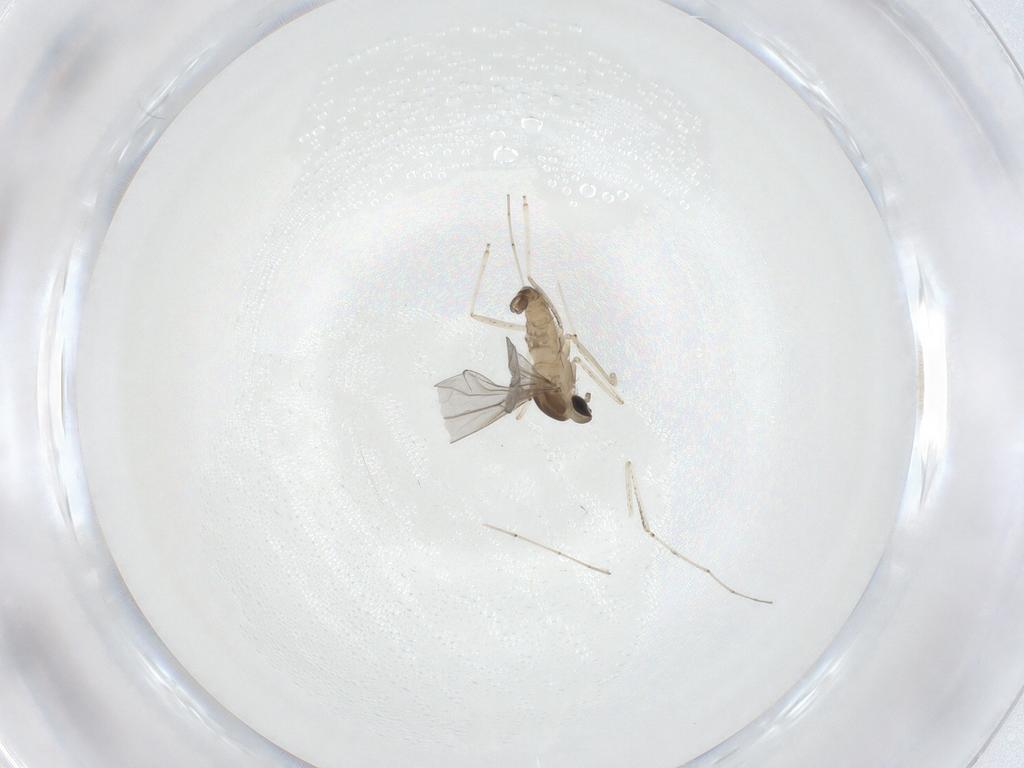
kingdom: Animalia
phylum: Arthropoda
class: Insecta
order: Diptera
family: Cecidomyiidae
